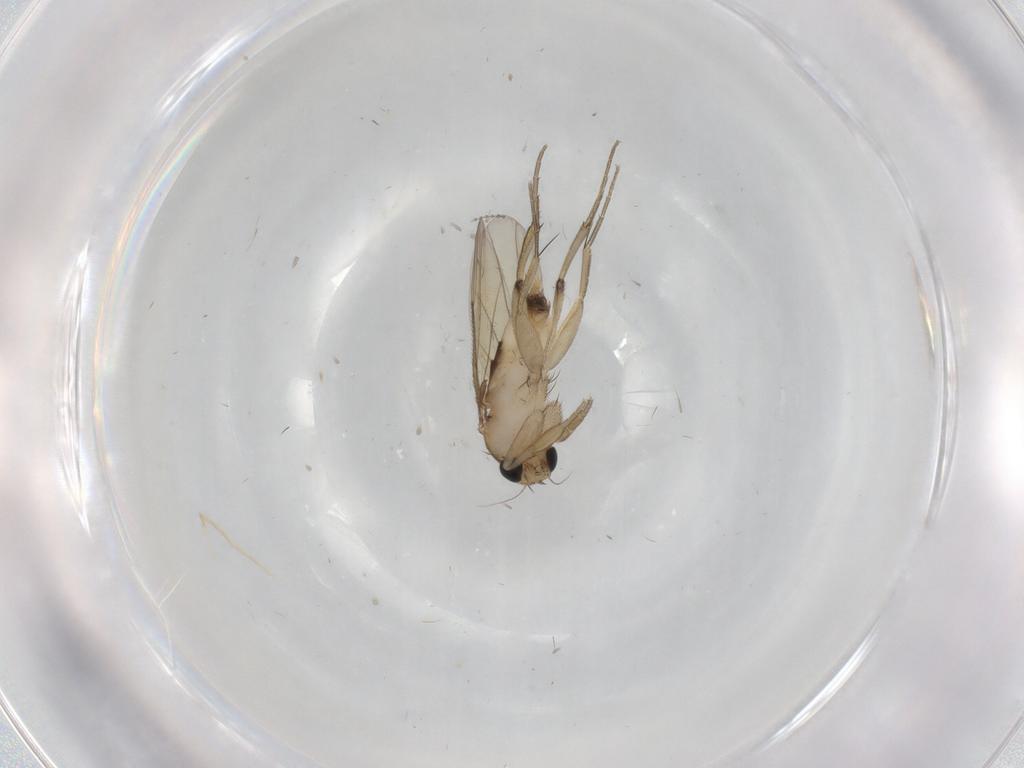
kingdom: Animalia
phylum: Arthropoda
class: Insecta
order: Diptera
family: Phoridae
